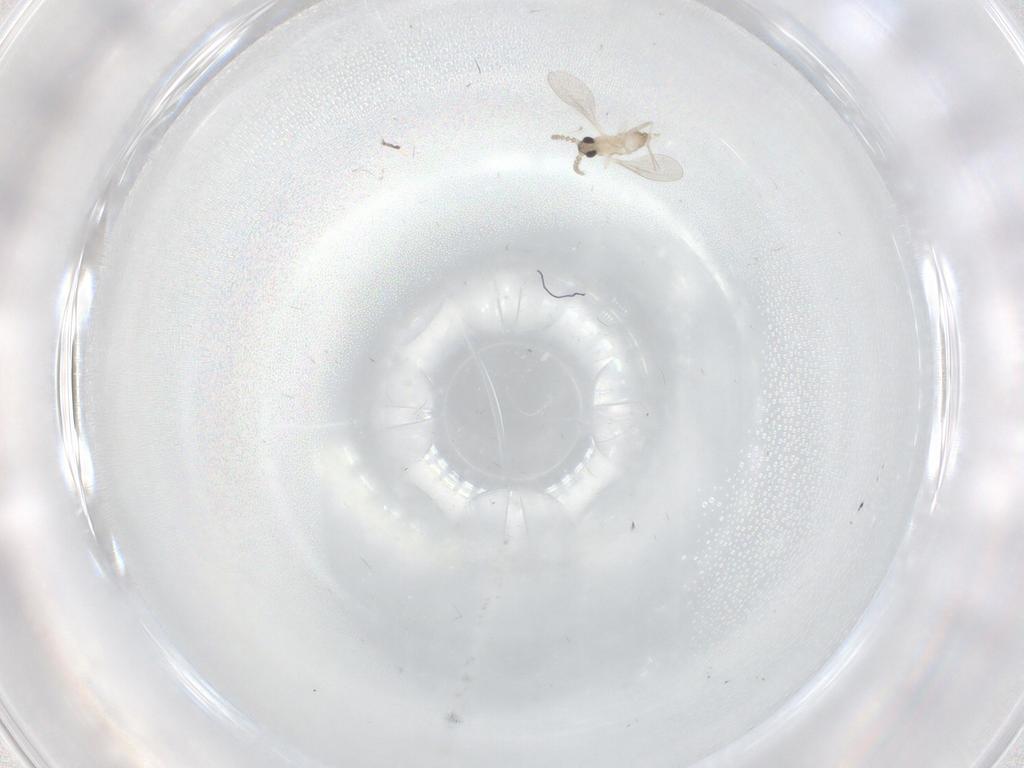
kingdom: Animalia
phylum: Arthropoda
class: Insecta
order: Diptera
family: Cecidomyiidae
